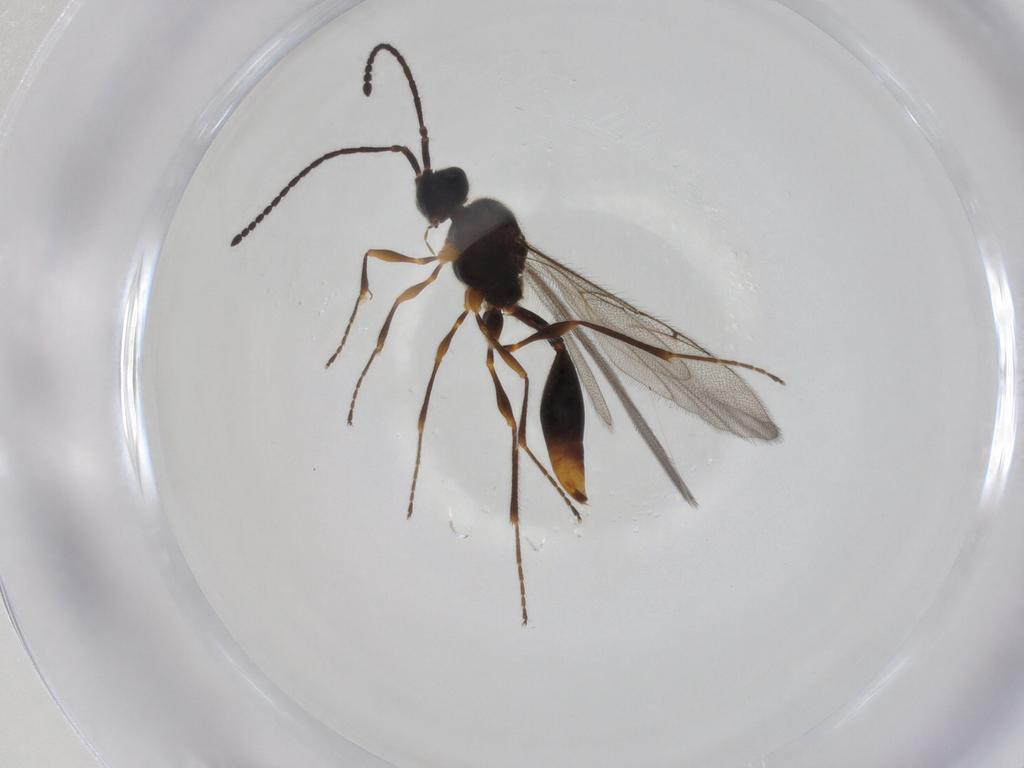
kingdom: Animalia
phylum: Arthropoda
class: Insecta
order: Hymenoptera
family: Diapriidae
